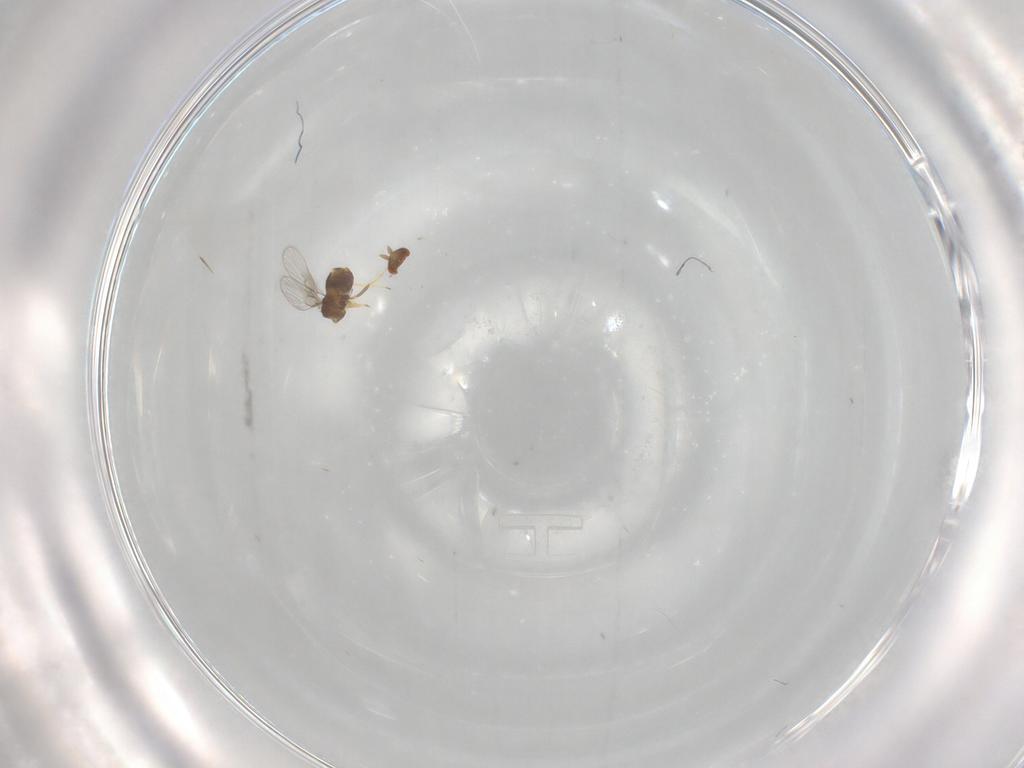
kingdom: Animalia
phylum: Arthropoda
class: Insecta
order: Hymenoptera
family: Trichogrammatidae
